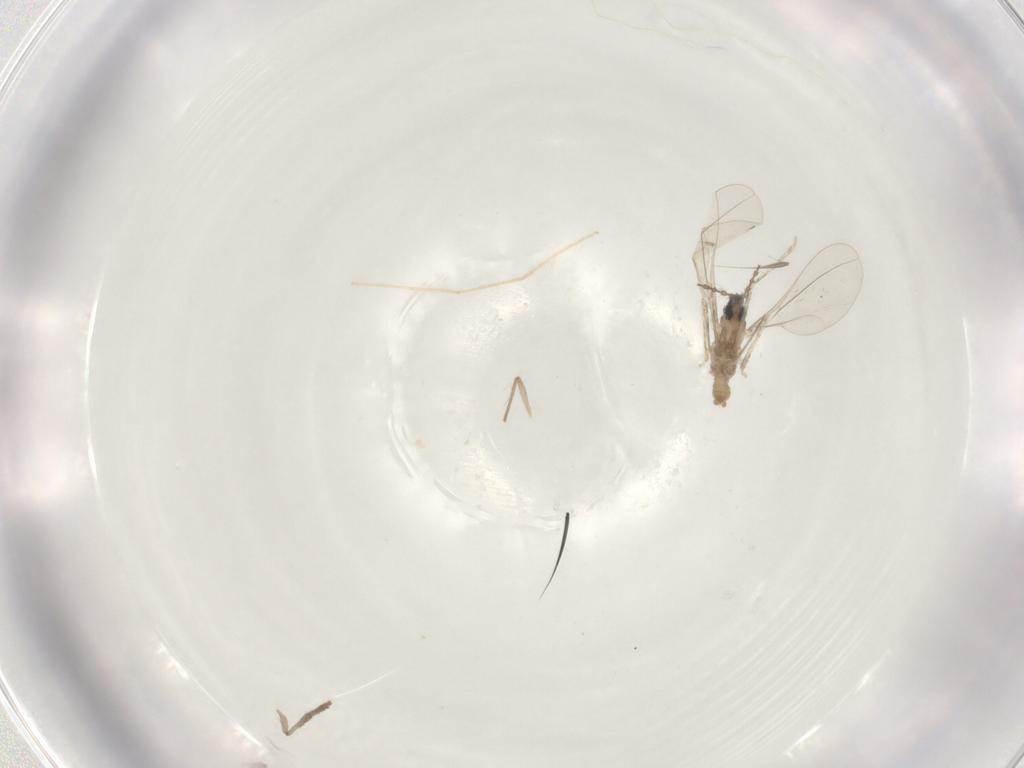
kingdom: Animalia
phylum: Arthropoda
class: Insecta
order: Diptera
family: Cecidomyiidae
